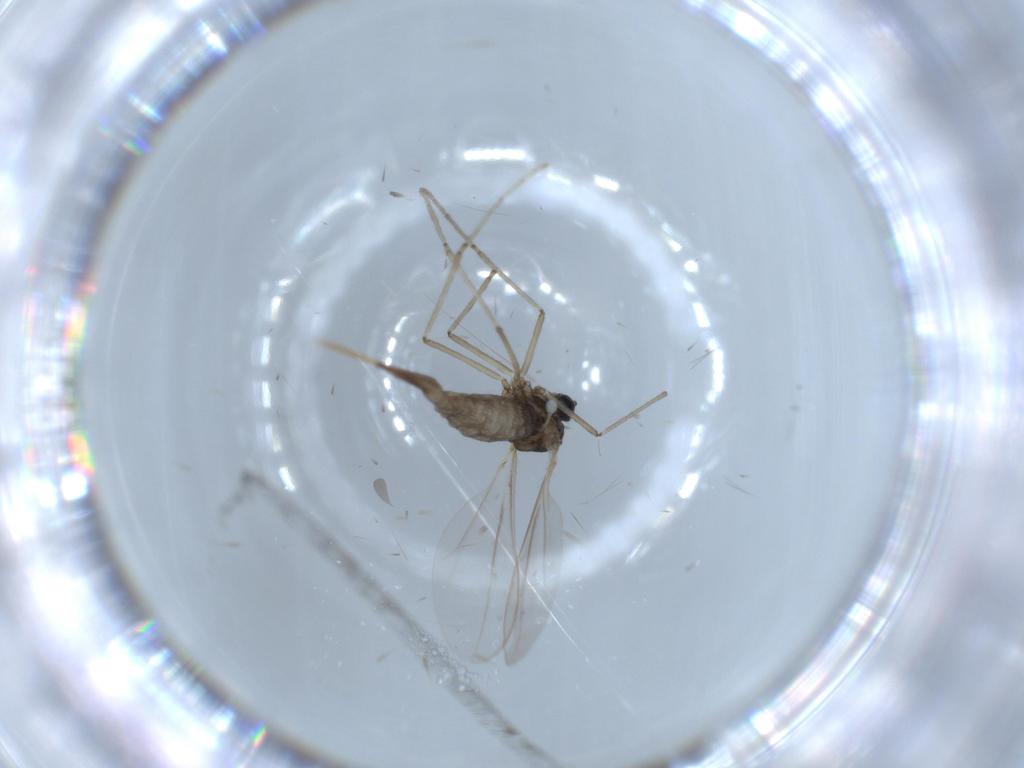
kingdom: Animalia
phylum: Arthropoda
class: Insecta
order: Diptera
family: Cecidomyiidae
